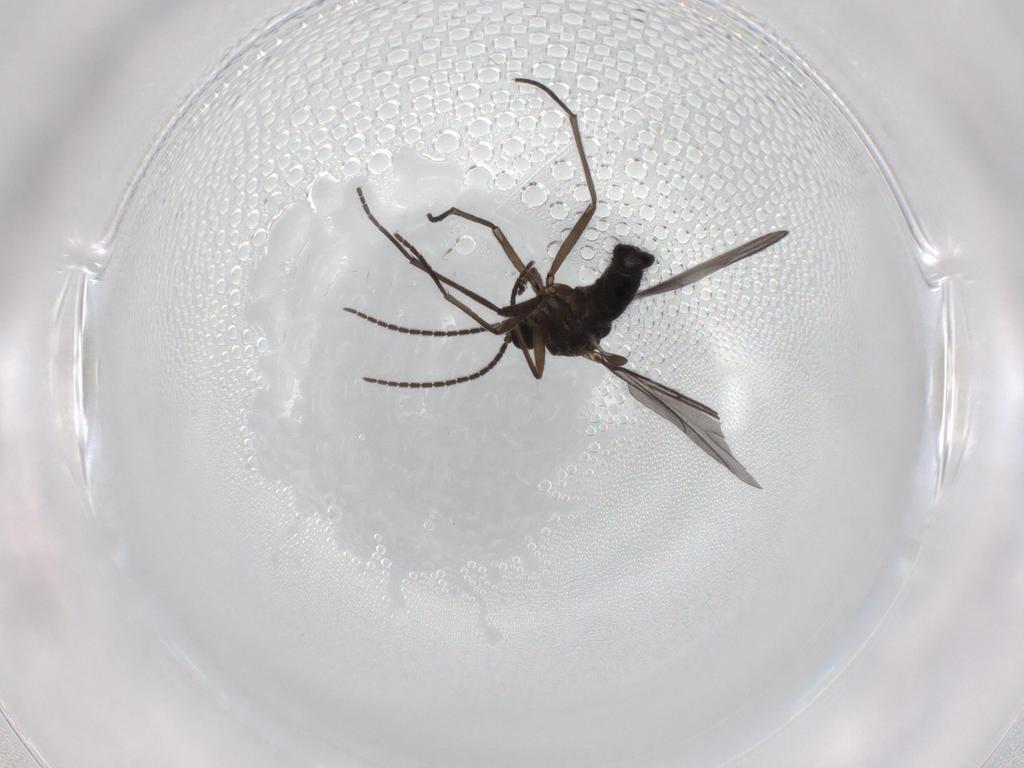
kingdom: Animalia
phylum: Arthropoda
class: Insecta
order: Diptera
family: Sciaridae
